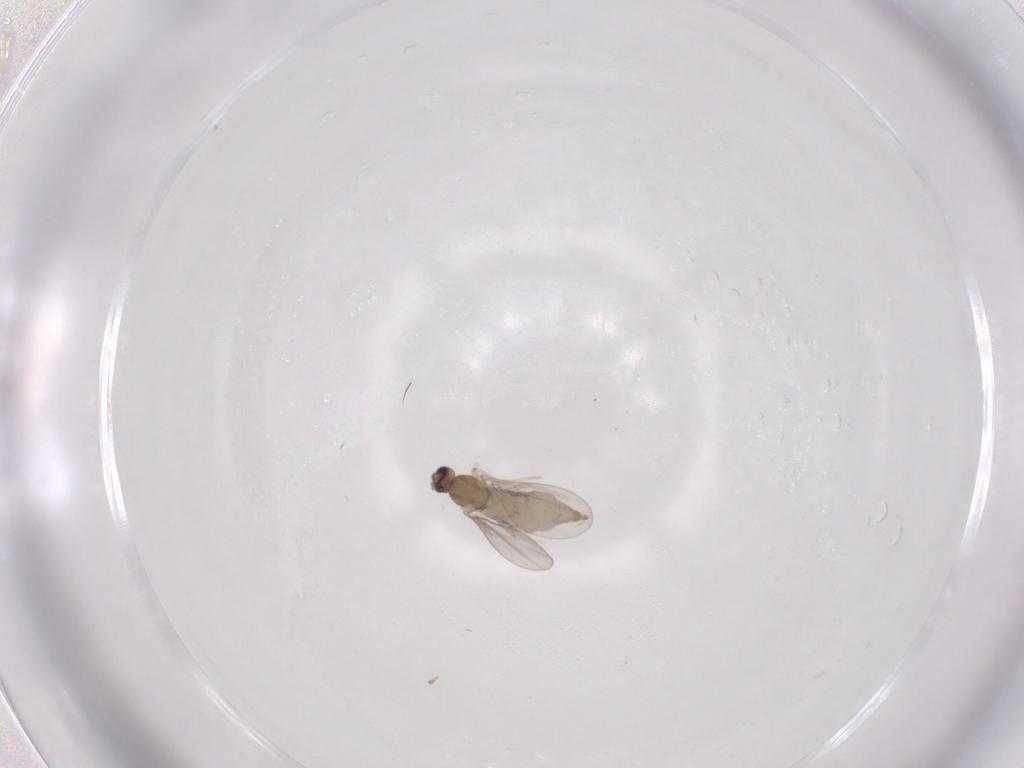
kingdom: Animalia
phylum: Arthropoda
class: Insecta
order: Diptera
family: Cecidomyiidae
